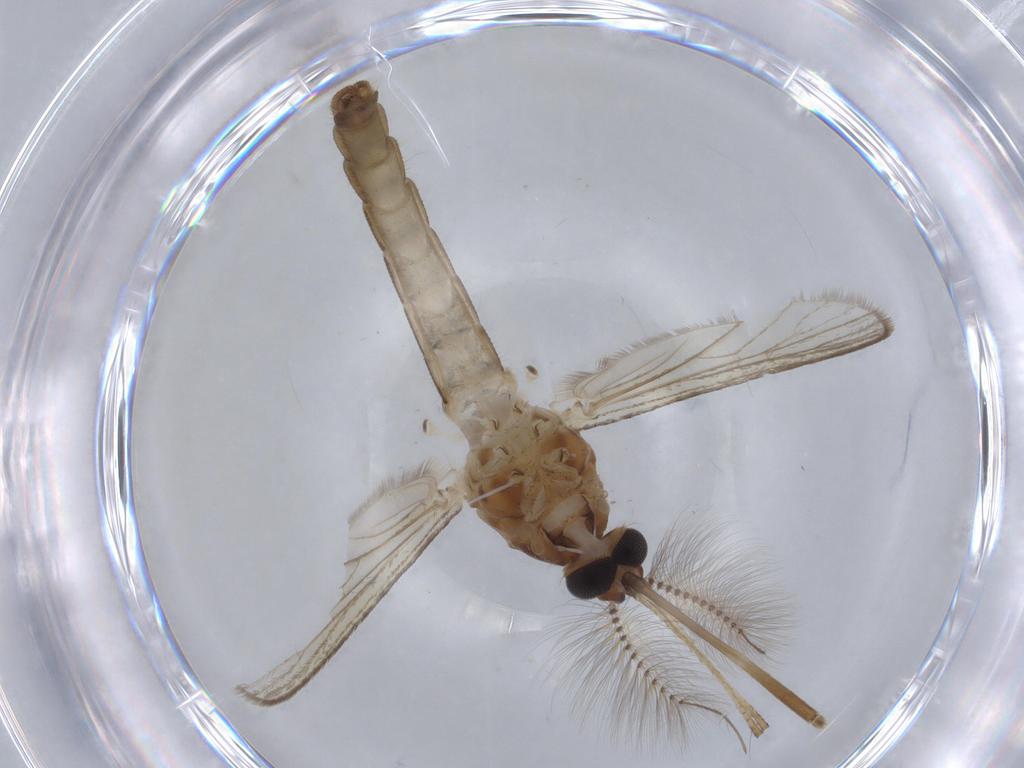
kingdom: Animalia
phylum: Arthropoda
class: Insecta
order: Diptera
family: Culicidae
